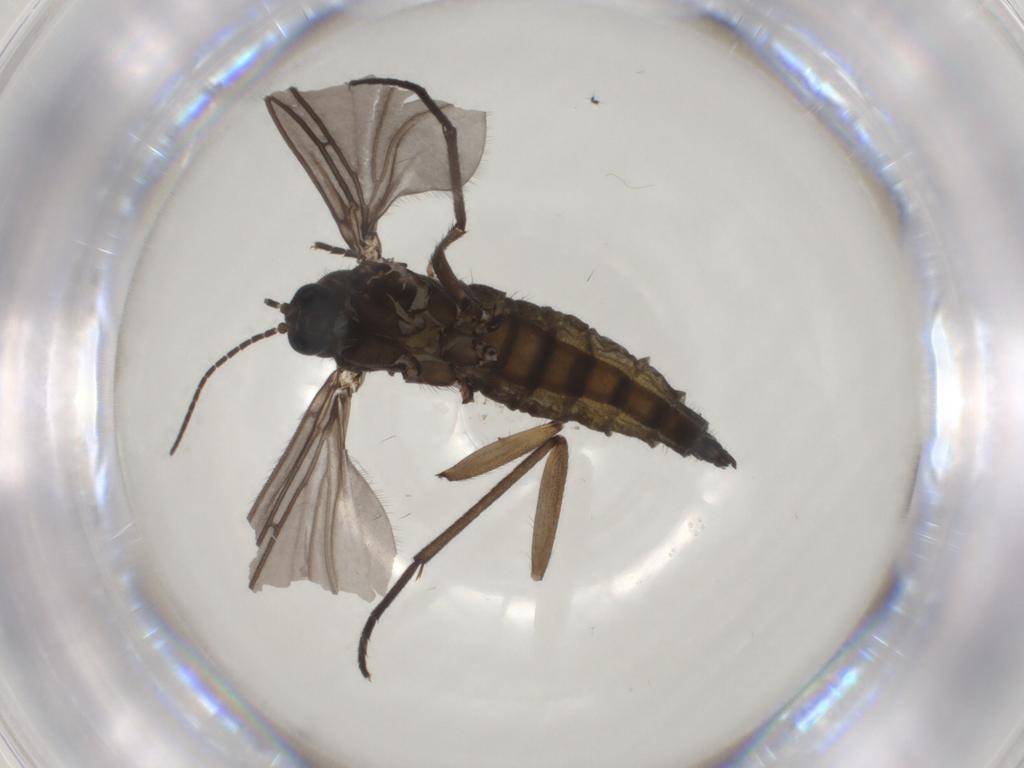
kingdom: Animalia
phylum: Arthropoda
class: Insecta
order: Diptera
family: Sciaridae
